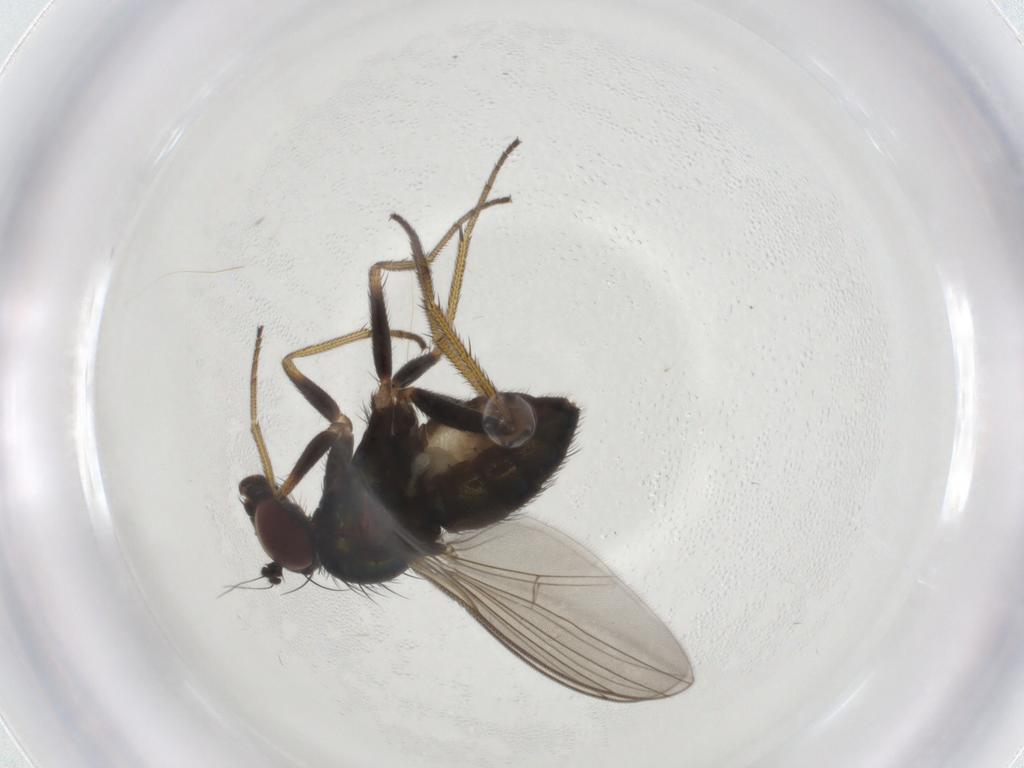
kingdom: Animalia
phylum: Arthropoda
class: Insecta
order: Diptera
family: Dolichopodidae
